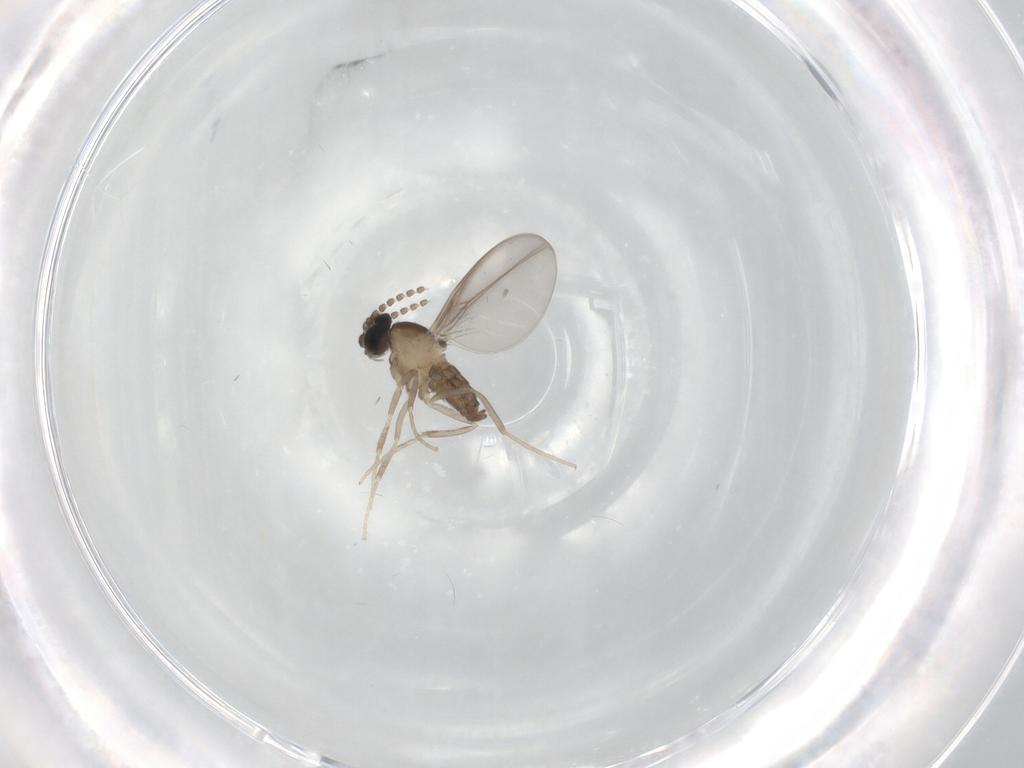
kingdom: Animalia
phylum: Arthropoda
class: Insecta
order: Diptera
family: Cecidomyiidae
